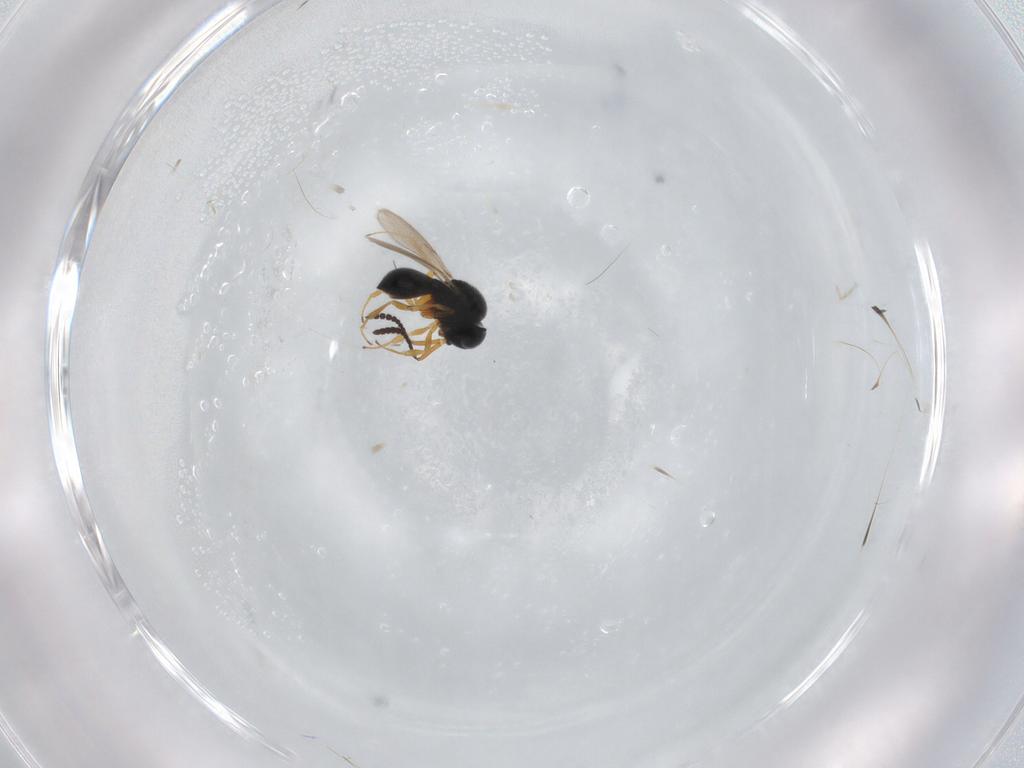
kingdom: Animalia
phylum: Arthropoda
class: Insecta
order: Hymenoptera
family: Scelionidae
